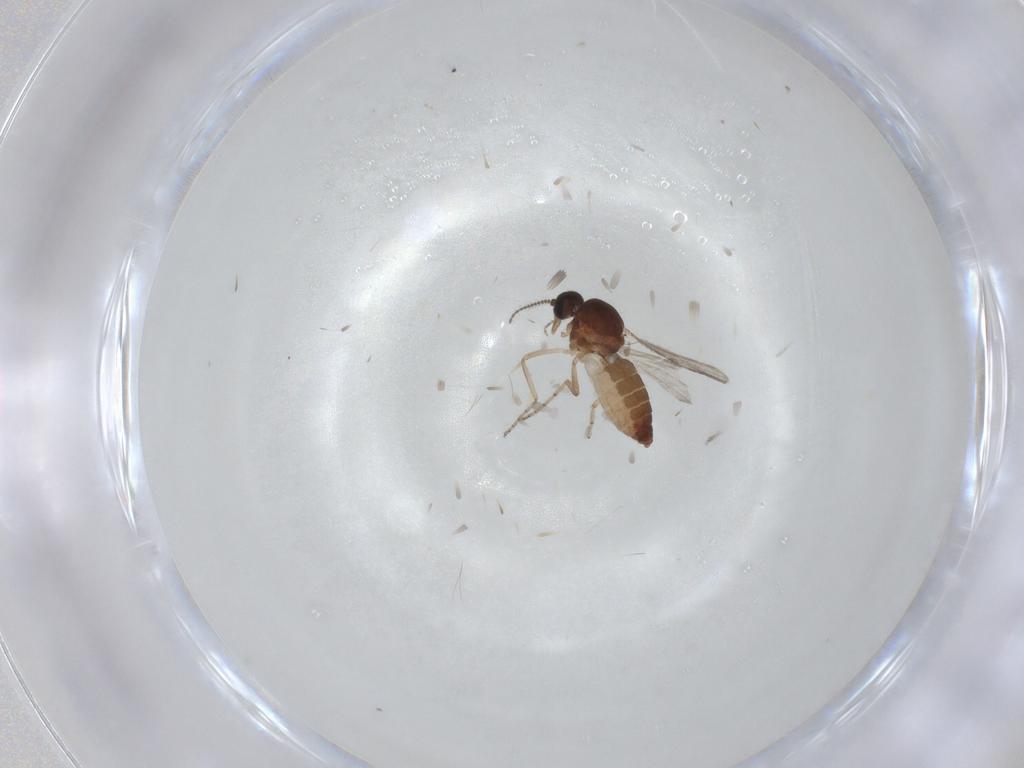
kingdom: Animalia
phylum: Arthropoda
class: Insecta
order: Diptera
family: Ceratopogonidae
